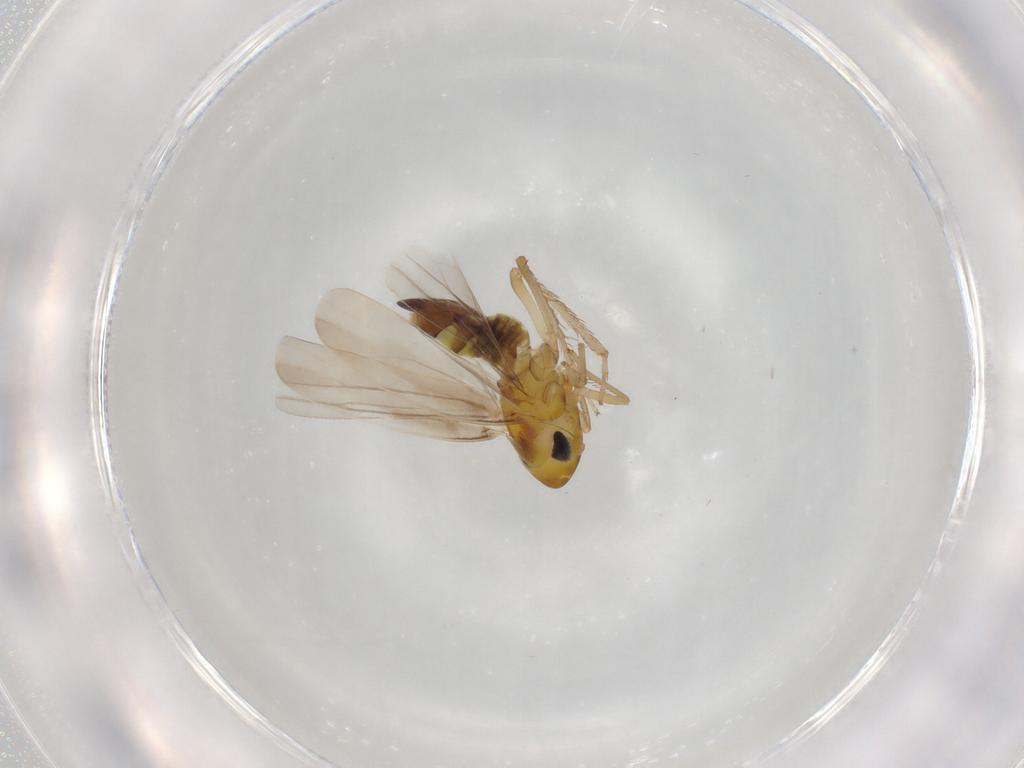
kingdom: Animalia
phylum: Arthropoda
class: Insecta
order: Hemiptera
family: Cicadellidae
